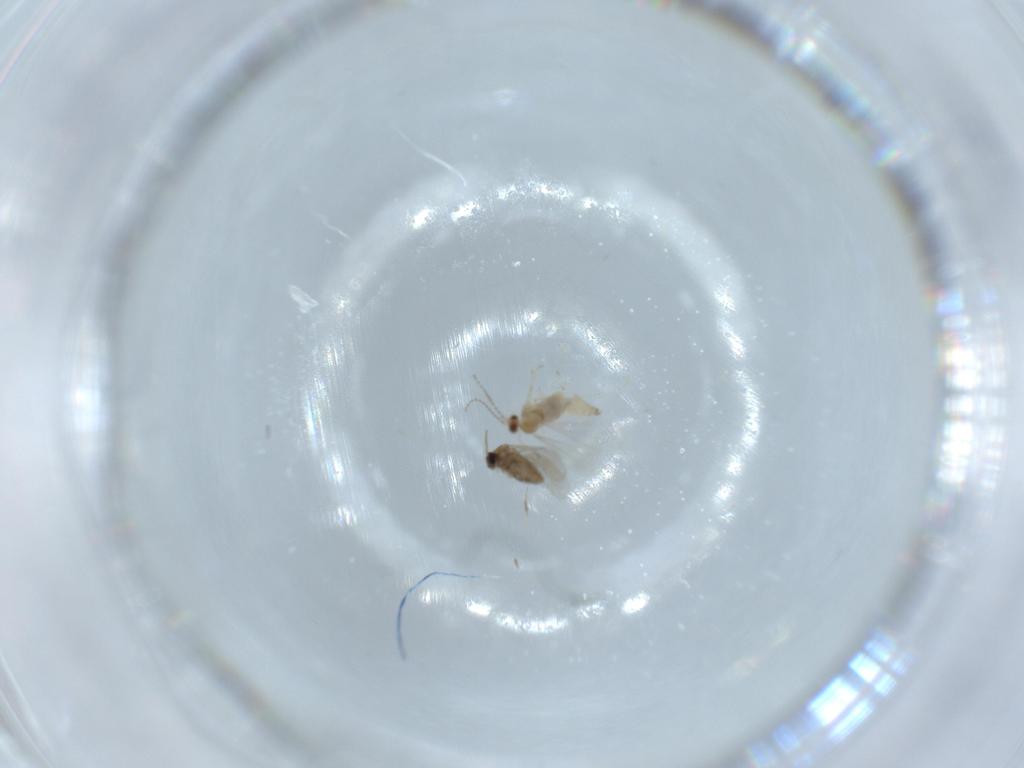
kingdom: Animalia
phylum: Arthropoda
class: Insecta
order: Diptera
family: Cecidomyiidae
